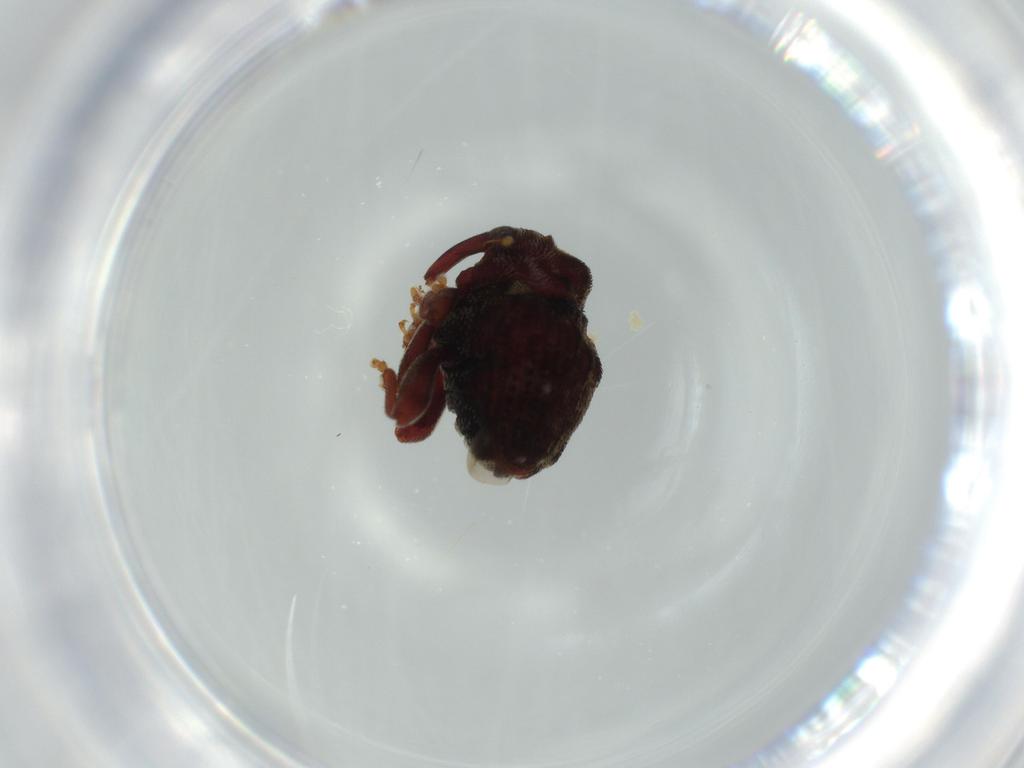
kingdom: Animalia
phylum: Arthropoda
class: Insecta
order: Coleoptera
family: Curculionidae
